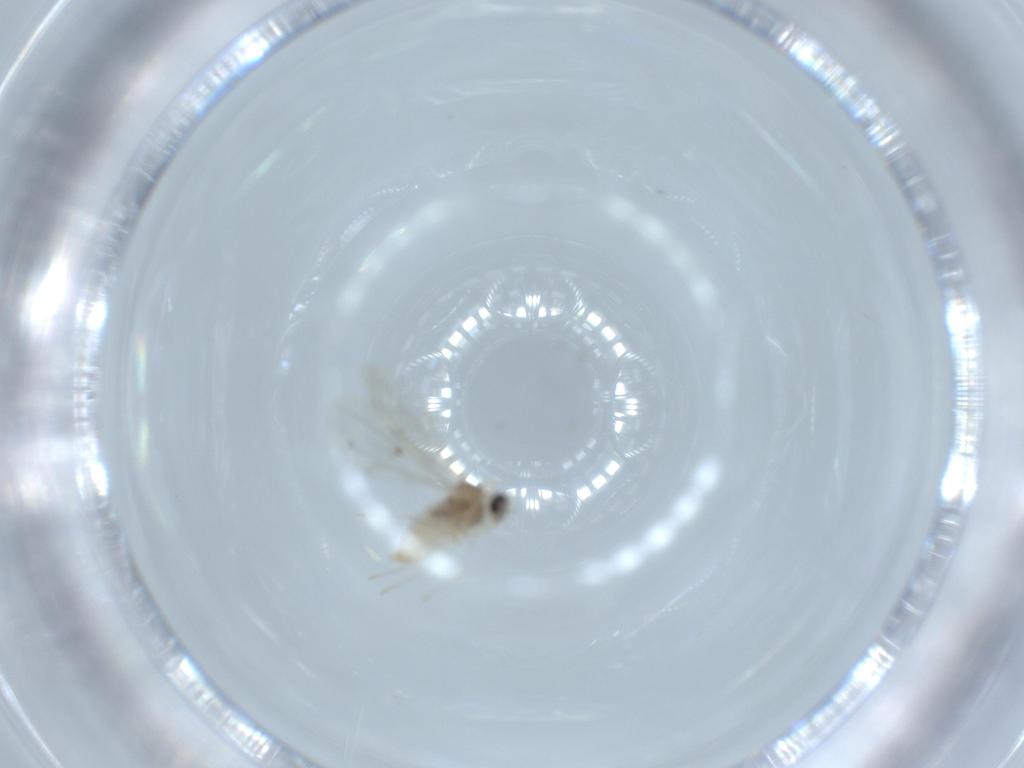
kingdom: Animalia
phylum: Arthropoda
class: Insecta
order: Diptera
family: Cecidomyiidae
